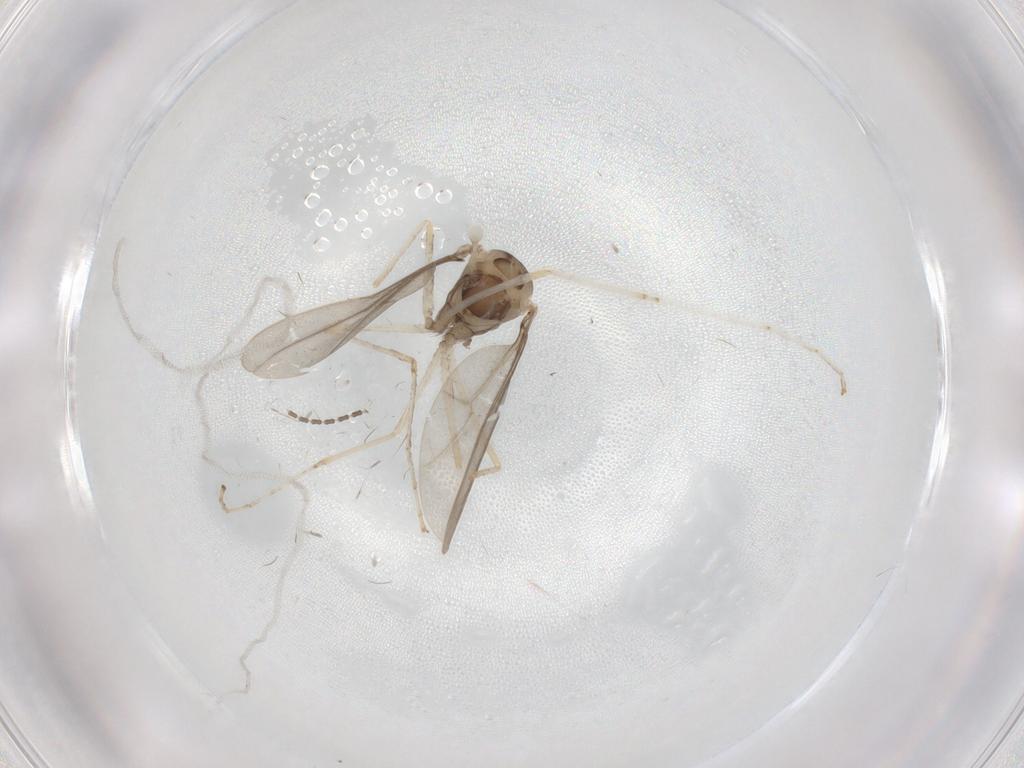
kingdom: Animalia
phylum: Arthropoda
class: Insecta
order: Diptera
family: Cecidomyiidae
